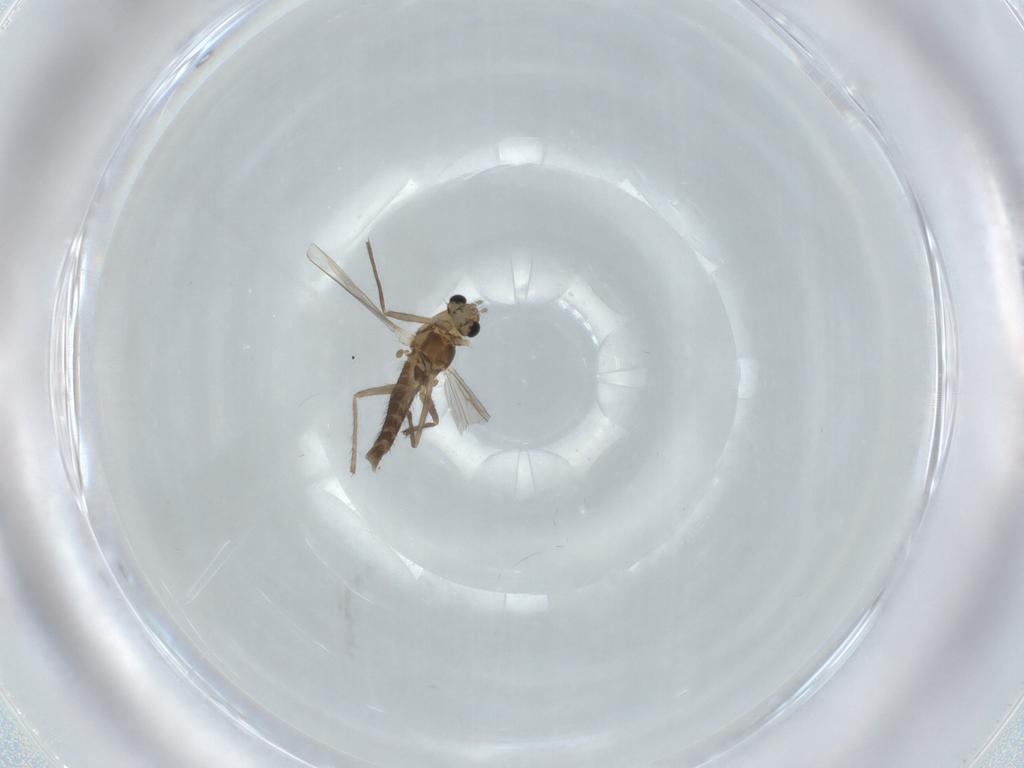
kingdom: Animalia
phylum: Arthropoda
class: Insecta
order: Diptera
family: Chironomidae
